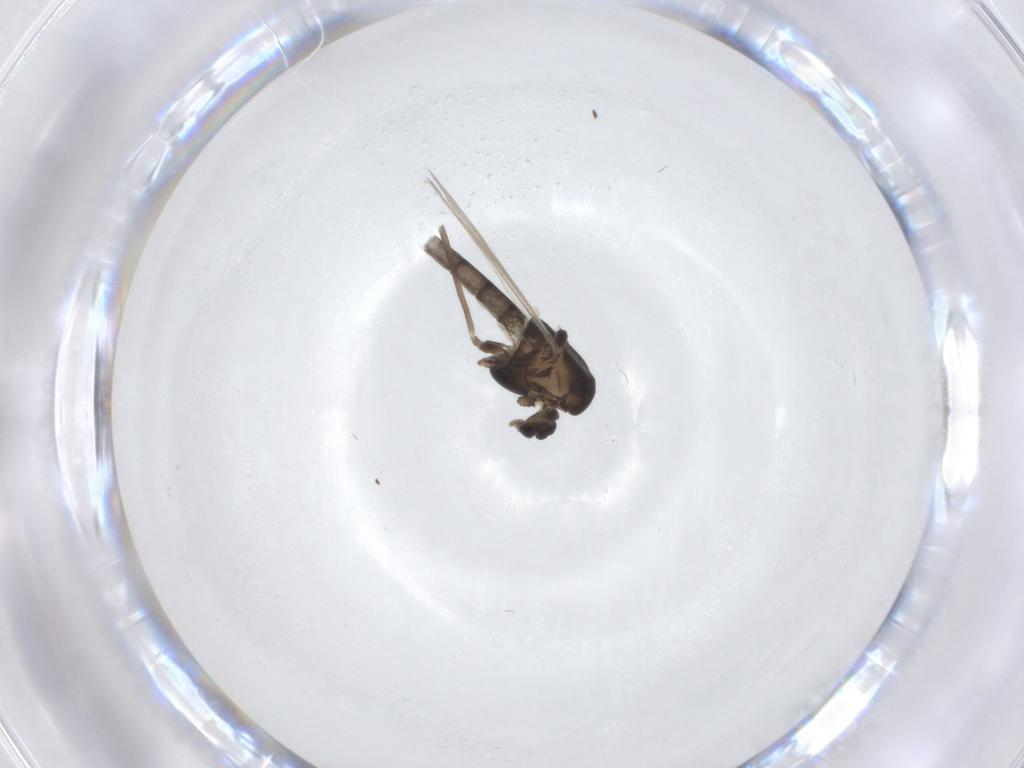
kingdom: Animalia
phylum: Arthropoda
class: Insecta
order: Diptera
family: Chironomidae
